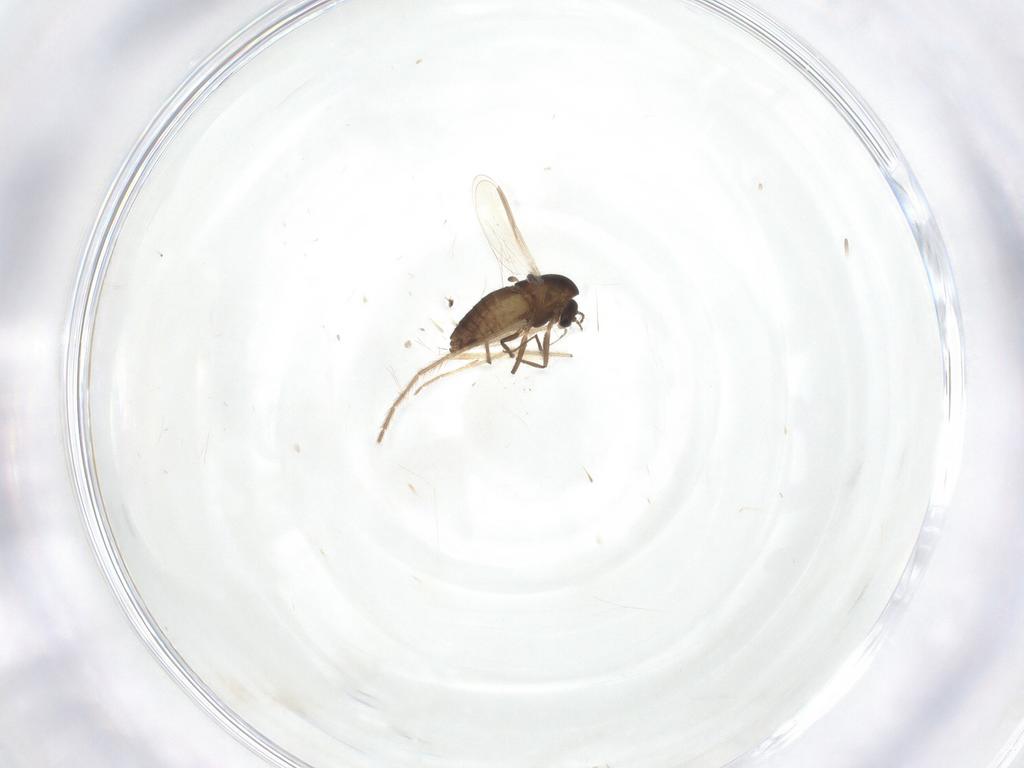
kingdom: Animalia
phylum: Arthropoda
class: Insecta
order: Diptera
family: Chironomidae
